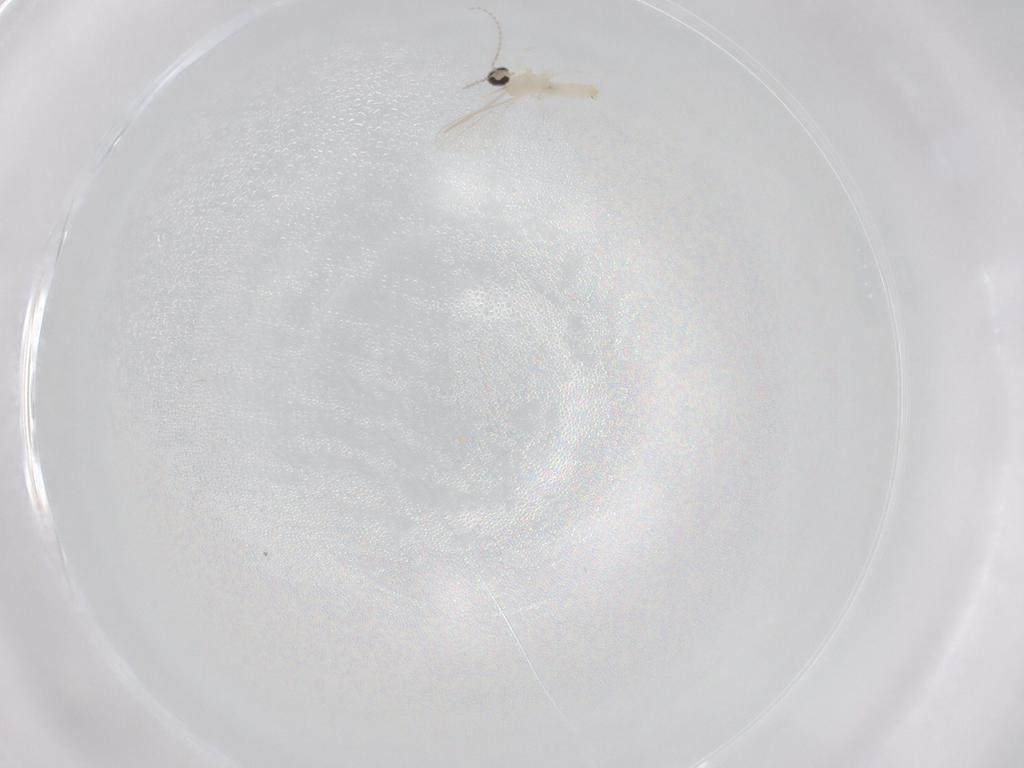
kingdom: Animalia
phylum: Arthropoda
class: Insecta
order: Diptera
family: Cecidomyiidae
